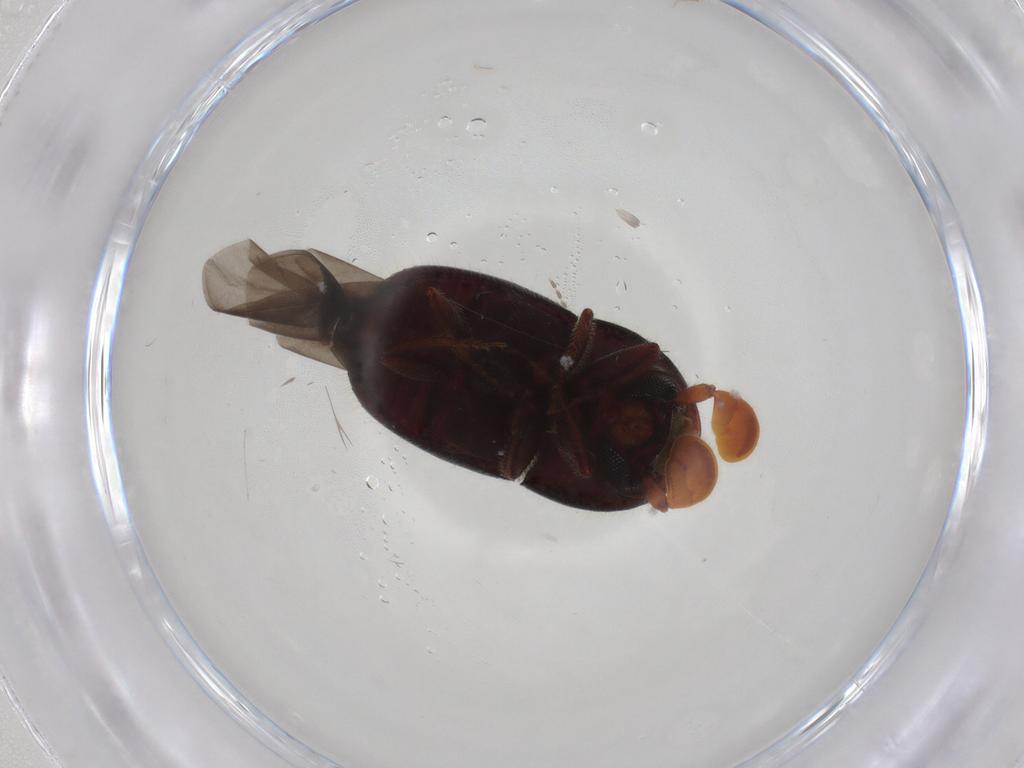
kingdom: Animalia
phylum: Arthropoda
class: Insecta
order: Coleoptera
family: Curculionidae
